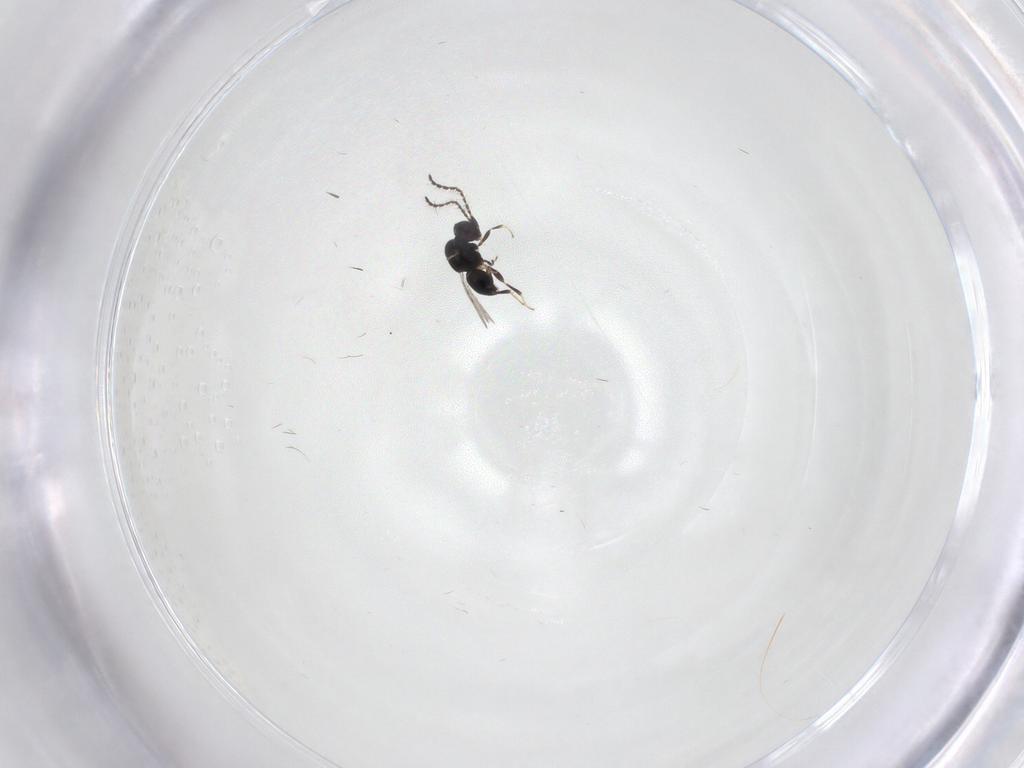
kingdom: Animalia
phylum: Arthropoda
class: Insecta
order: Hymenoptera
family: Ceraphronidae
